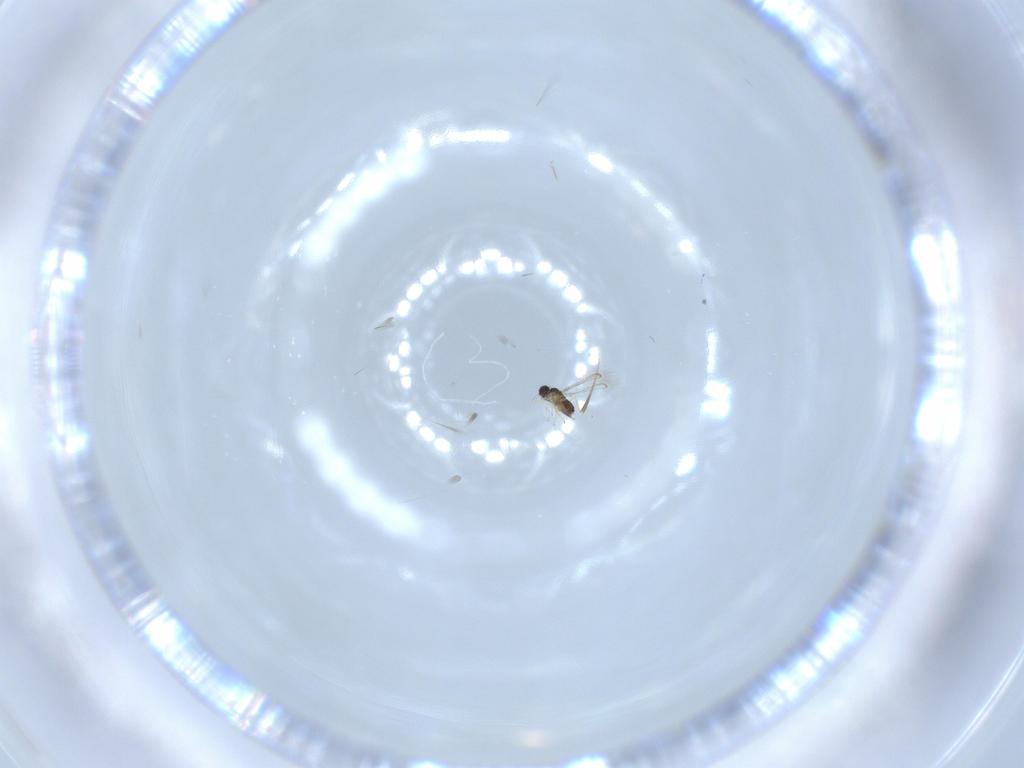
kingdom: Animalia
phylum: Arthropoda
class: Insecta
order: Hymenoptera
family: Mymaridae
